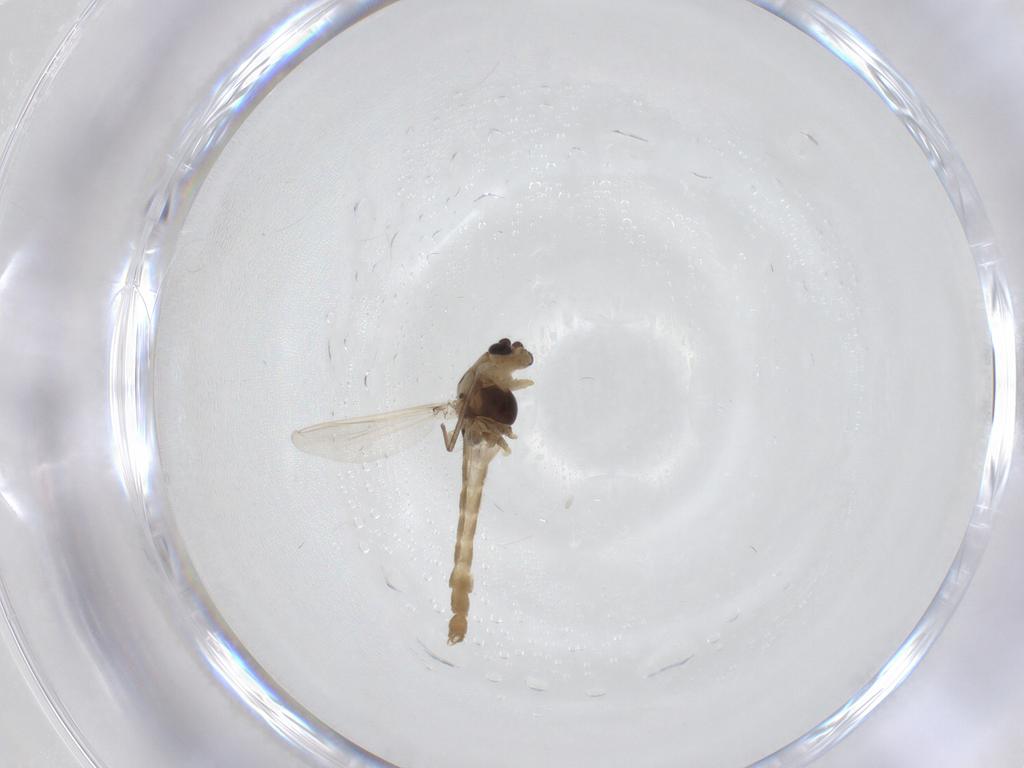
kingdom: Animalia
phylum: Arthropoda
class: Insecta
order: Diptera
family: Chironomidae
